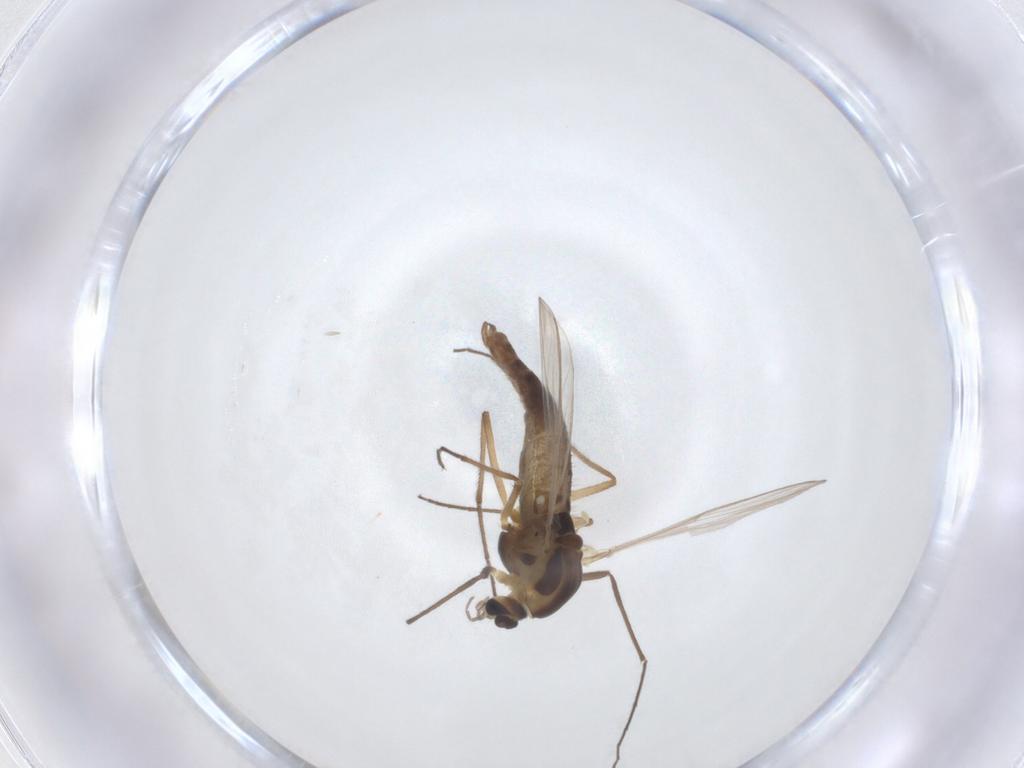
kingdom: Animalia
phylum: Arthropoda
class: Insecta
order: Diptera
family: Chironomidae
